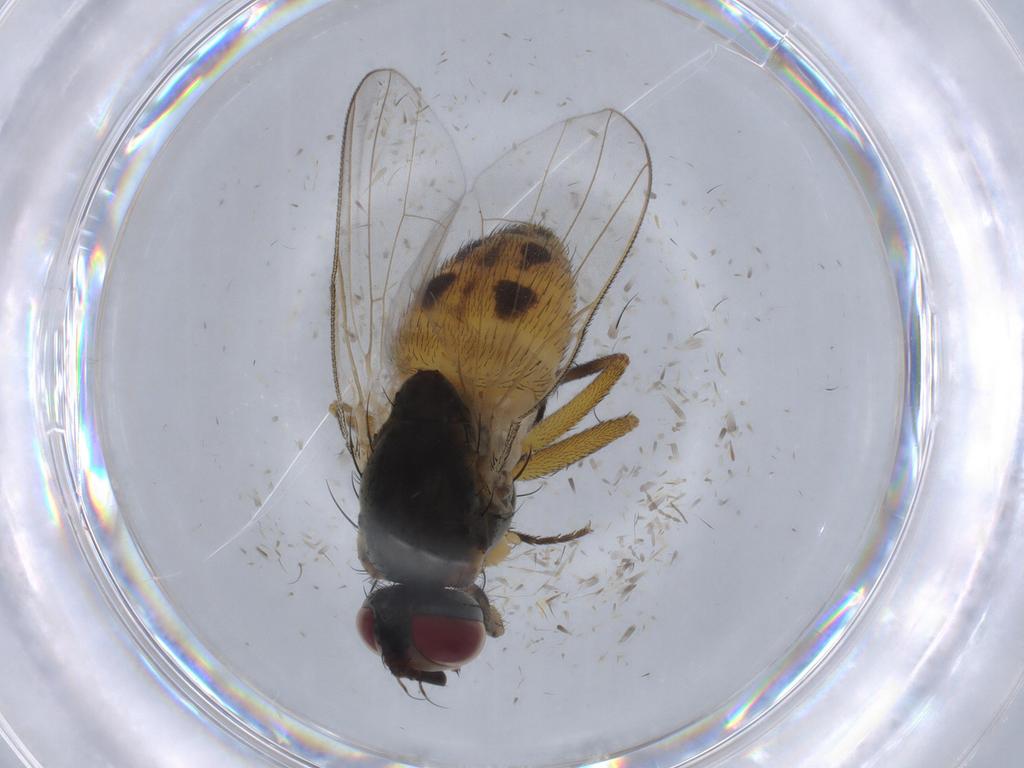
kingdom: Animalia
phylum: Arthropoda
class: Insecta
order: Diptera
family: Muscidae
